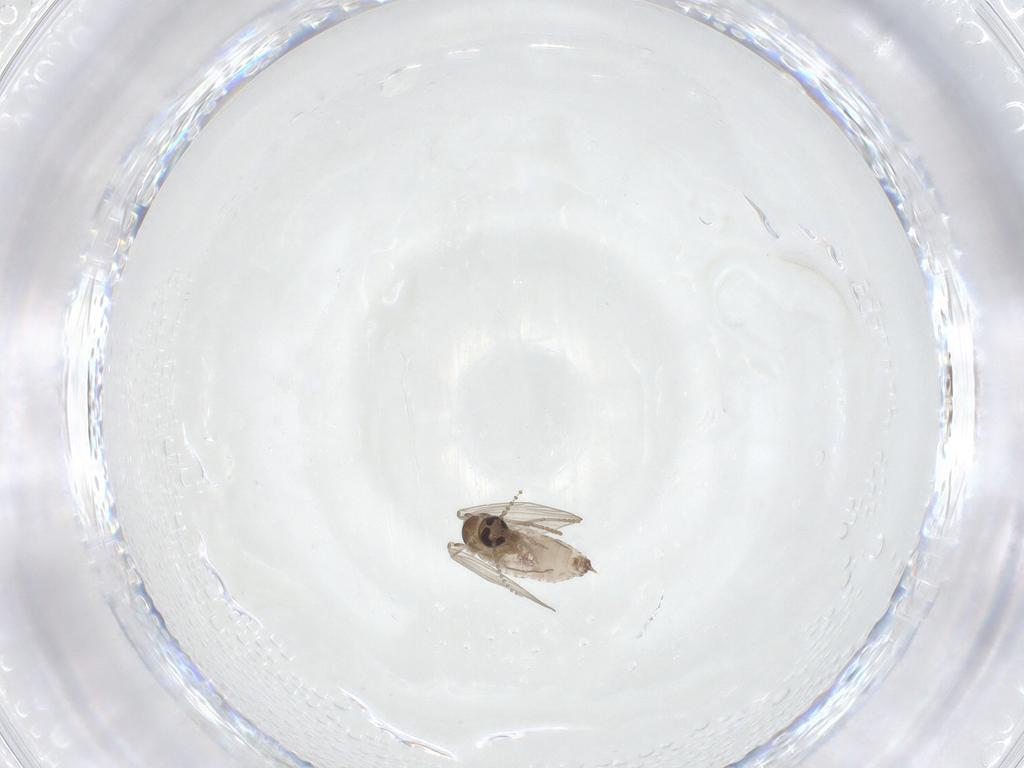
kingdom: Animalia
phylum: Arthropoda
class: Insecta
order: Diptera
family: Psychodidae
